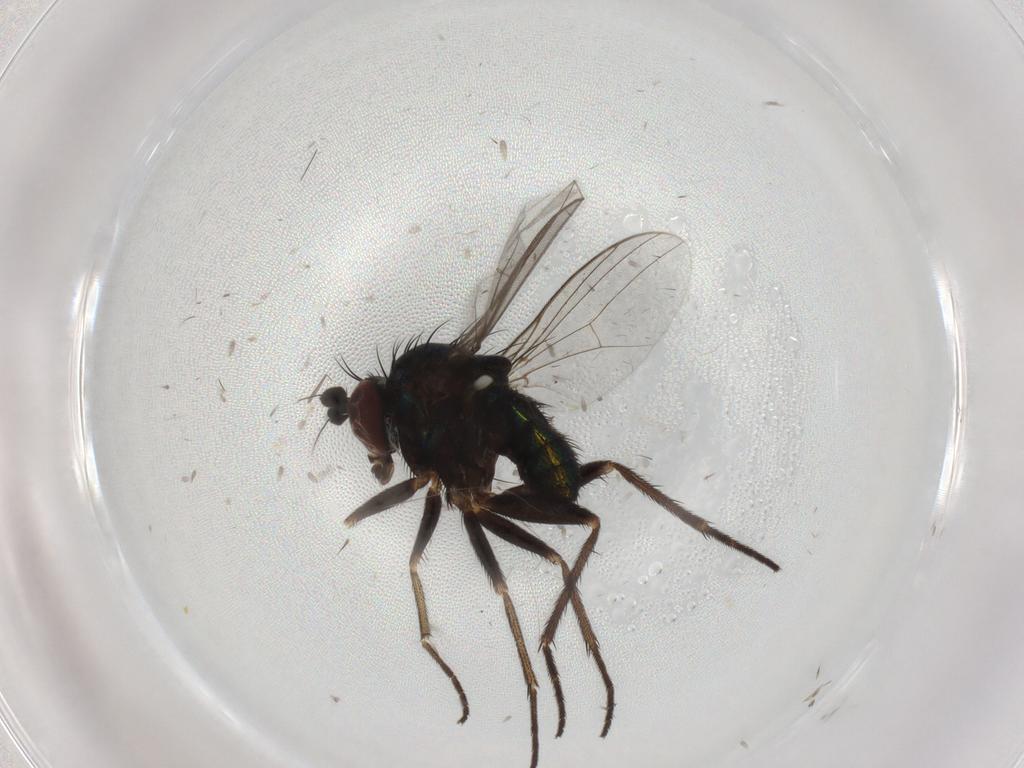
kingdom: Animalia
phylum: Arthropoda
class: Insecta
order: Diptera
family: Dolichopodidae
